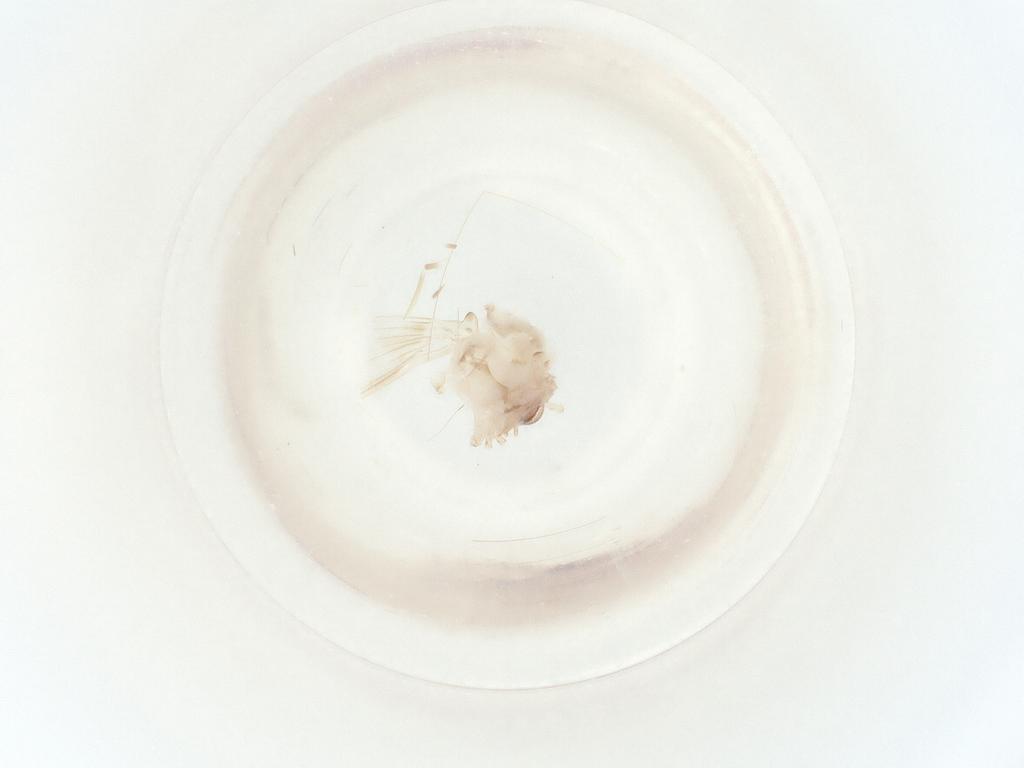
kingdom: Animalia
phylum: Arthropoda
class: Insecta
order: Diptera
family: Psychodidae
